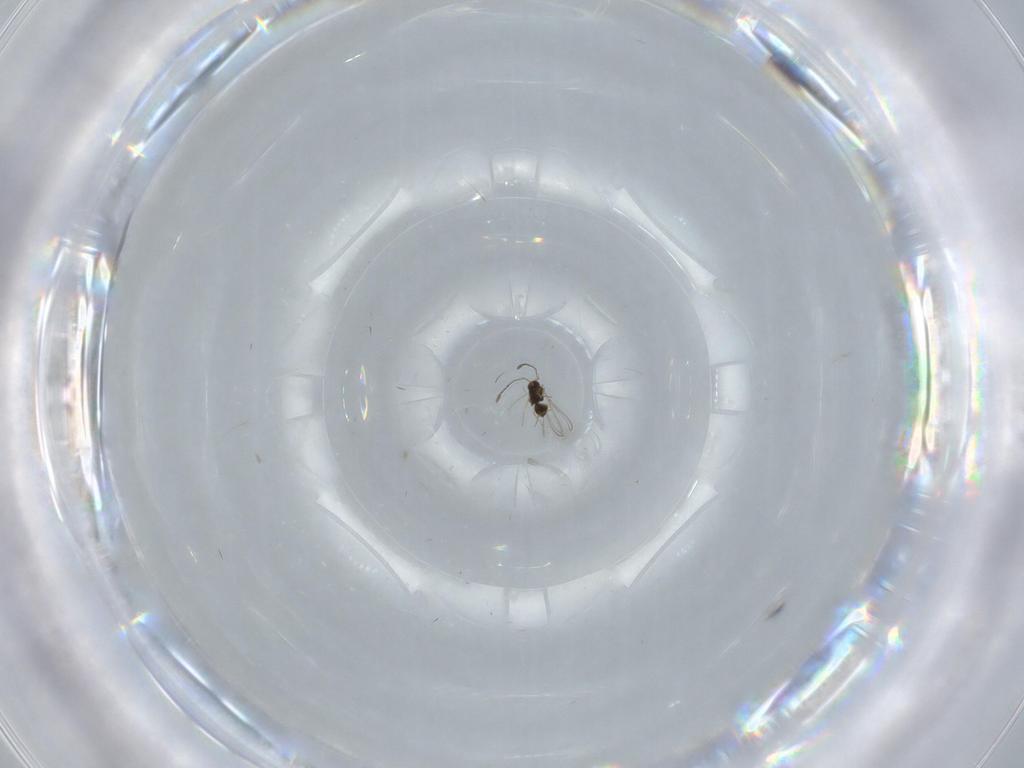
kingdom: Animalia
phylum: Arthropoda
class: Insecta
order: Hymenoptera
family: Mymaridae
